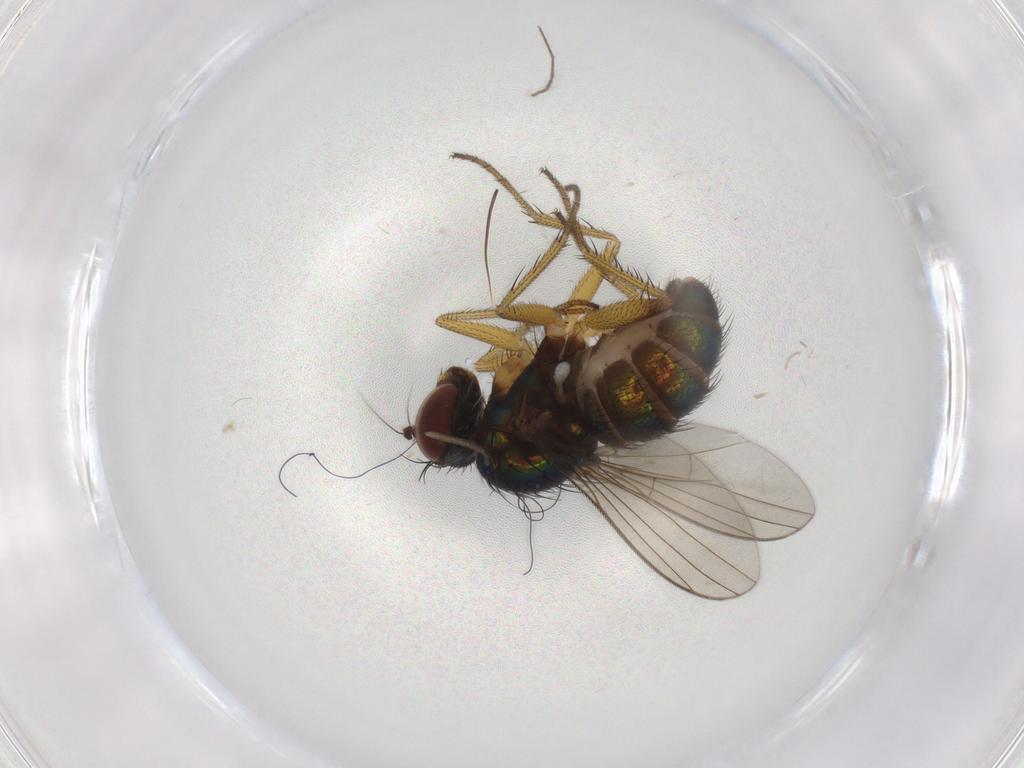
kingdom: Animalia
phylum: Arthropoda
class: Insecta
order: Diptera
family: Dolichopodidae
